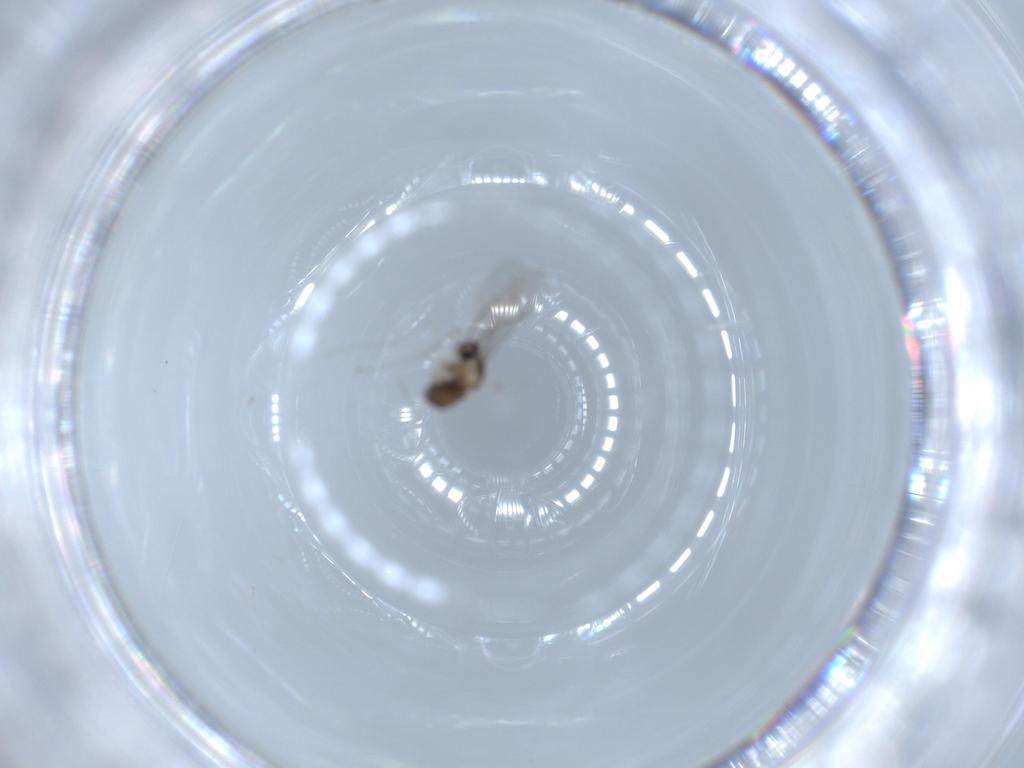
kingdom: Animalia
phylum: Arthropoda
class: Insecta
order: Diptera
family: Cecidomyiidae
